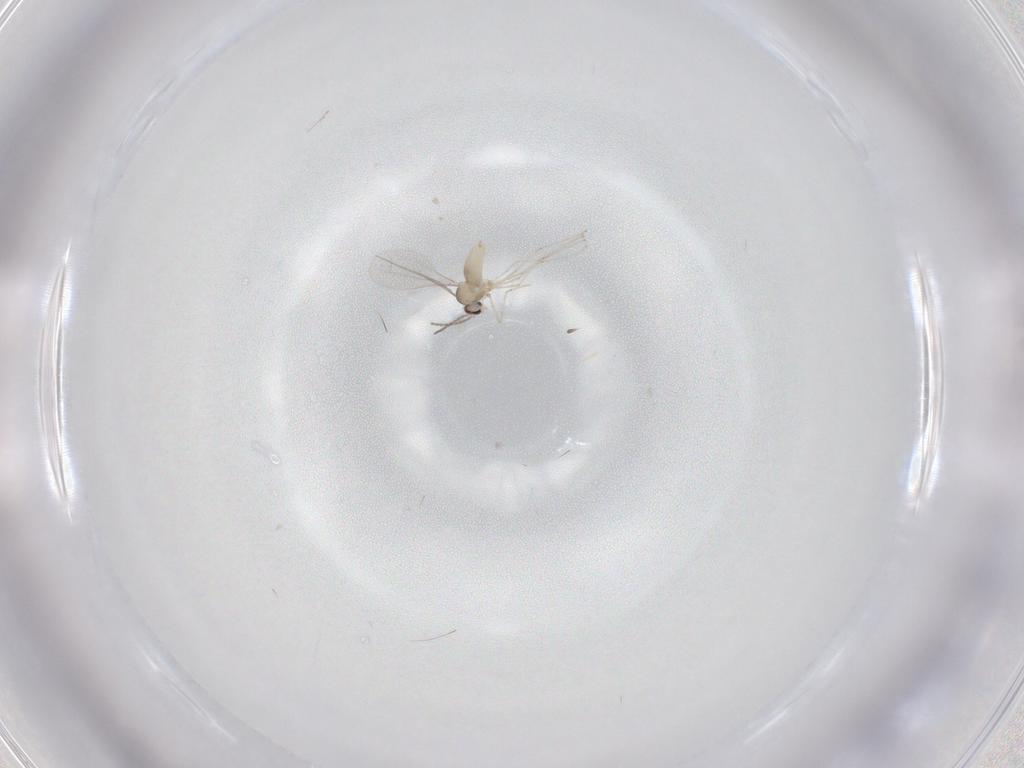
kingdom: Animalia
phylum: Arthropoda
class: Insecta
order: Diptera
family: Cecidomyiidae
